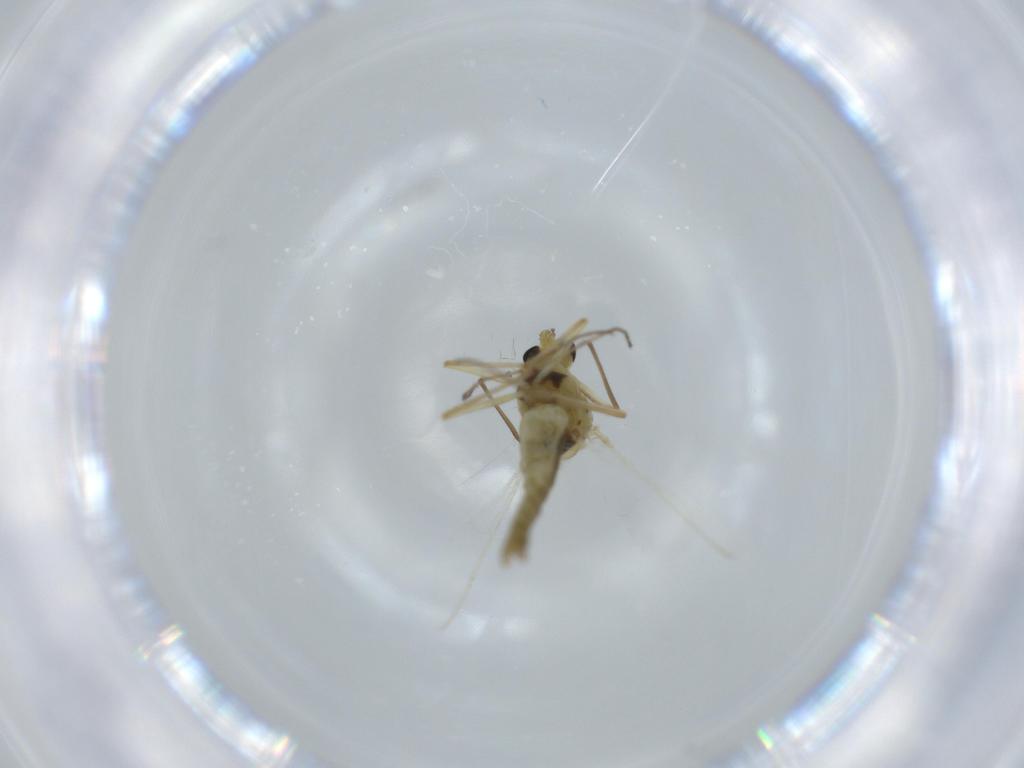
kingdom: Animalia
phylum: Arthropoda
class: Insecta
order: Diptera
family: Chironomidae
